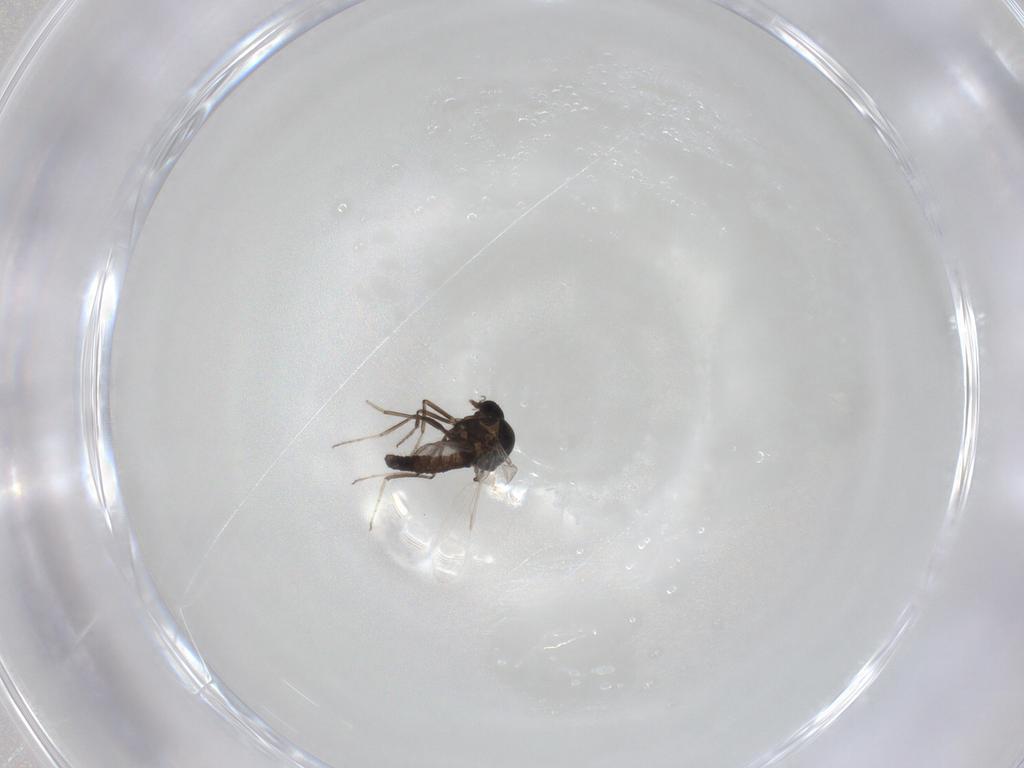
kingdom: Animalia
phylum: Arthropoda
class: Insecta
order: Diptera
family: Ceratopogonidae
